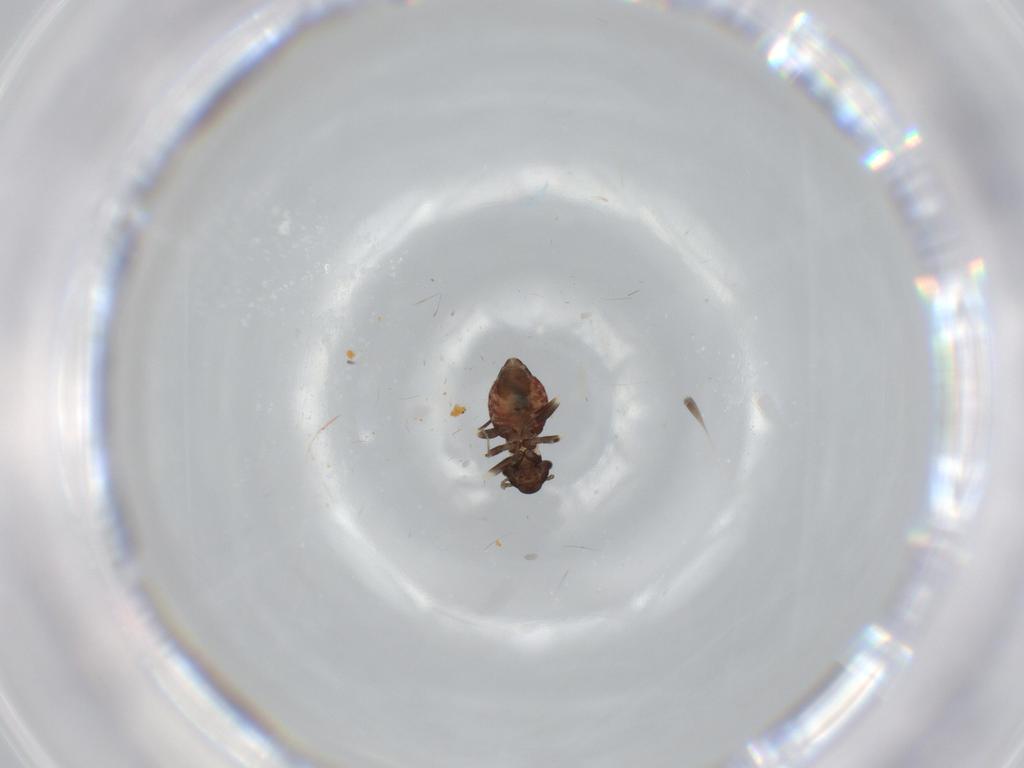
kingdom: Animalia
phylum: Arthropoda
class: Insecta
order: Psocodea
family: Lepidopsocidae
